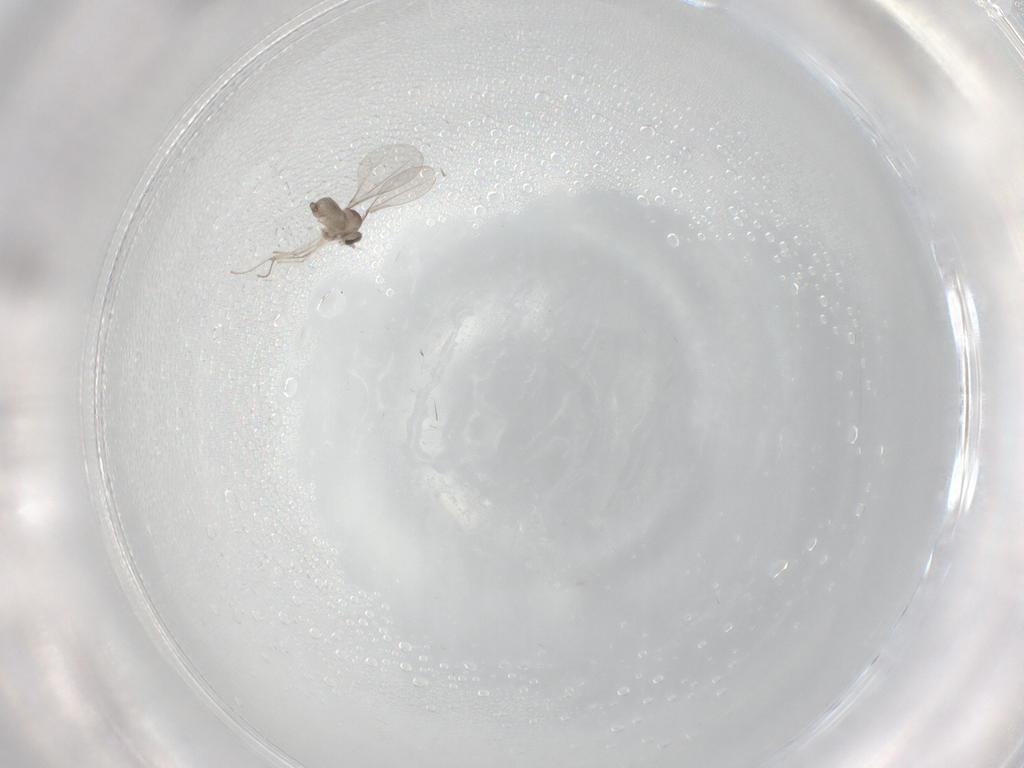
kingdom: Animalia
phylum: Arthropoda
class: Insecta
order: Diptera
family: Cecidomyiidae
